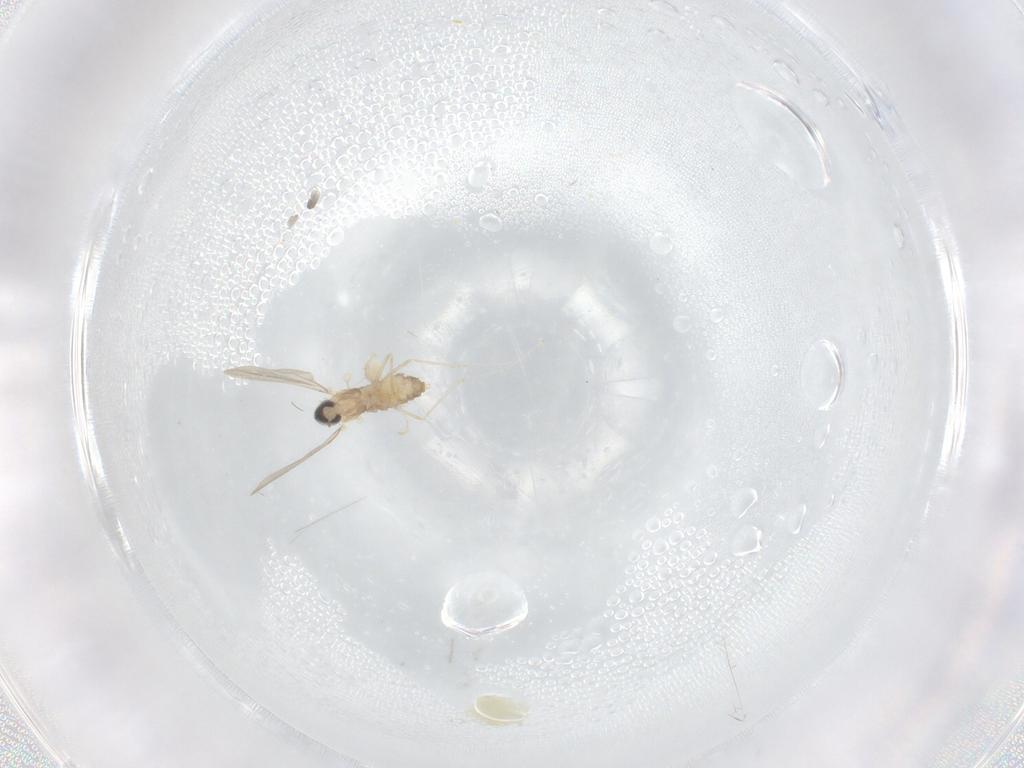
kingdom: Animalia
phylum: Arthropoda
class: Insecta
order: Diptera
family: Cecidomyiidae
